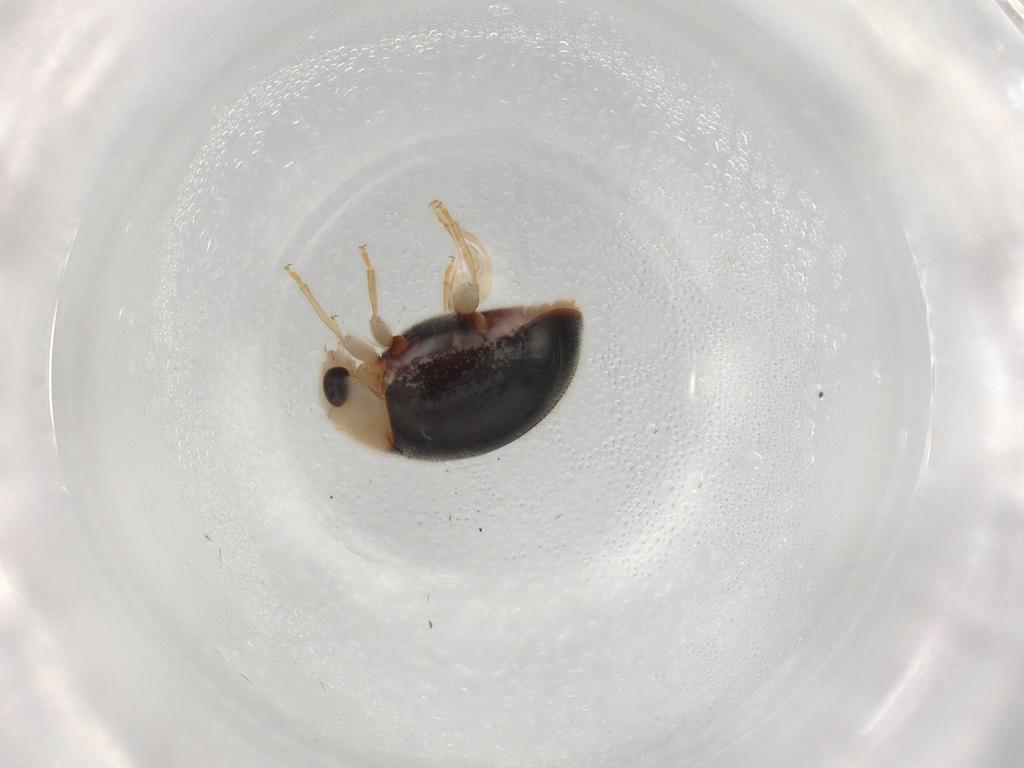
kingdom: Animalia
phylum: Arthropoda
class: Insecta
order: Coleoptera
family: Coccinellidae
